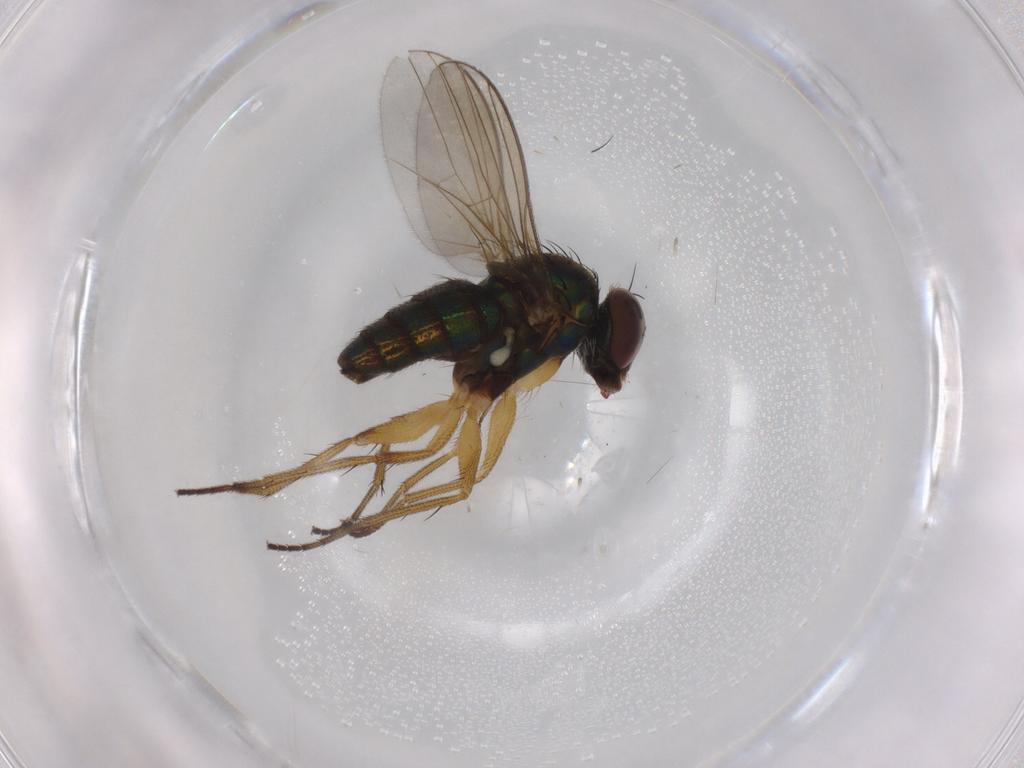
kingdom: Animalia
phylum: Arthropoda
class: Insecta
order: Diptera
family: Dolichopodidae
